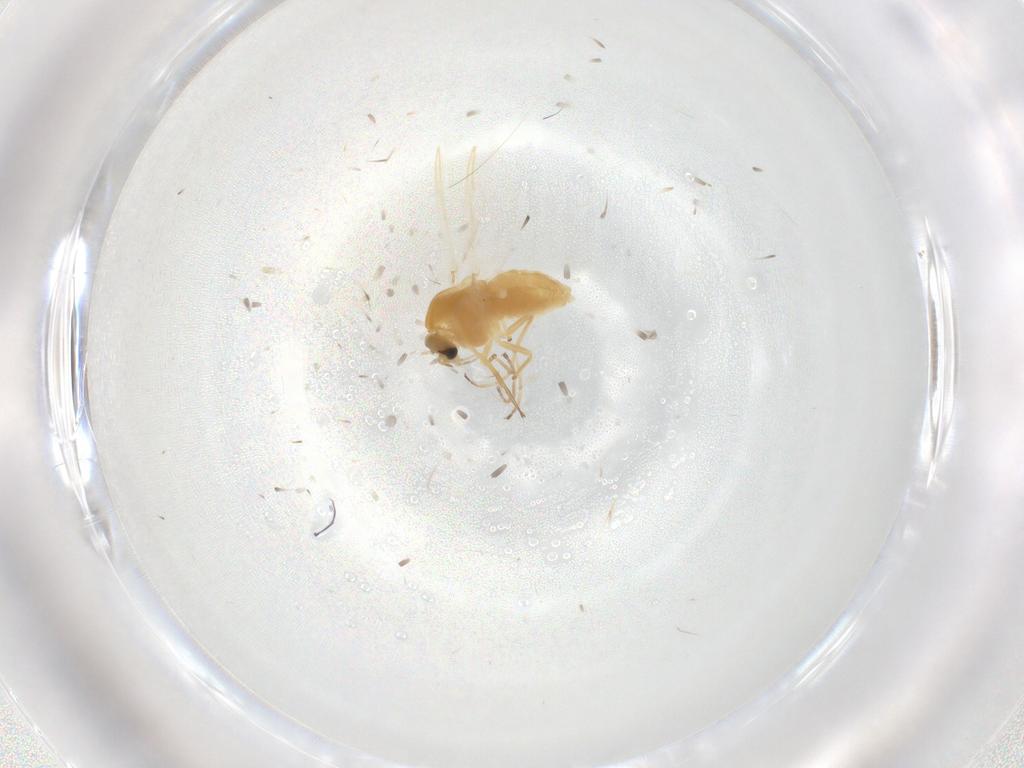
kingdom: Animalia
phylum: Arthropoda
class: Insecta
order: Diptera
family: Chironomidae
